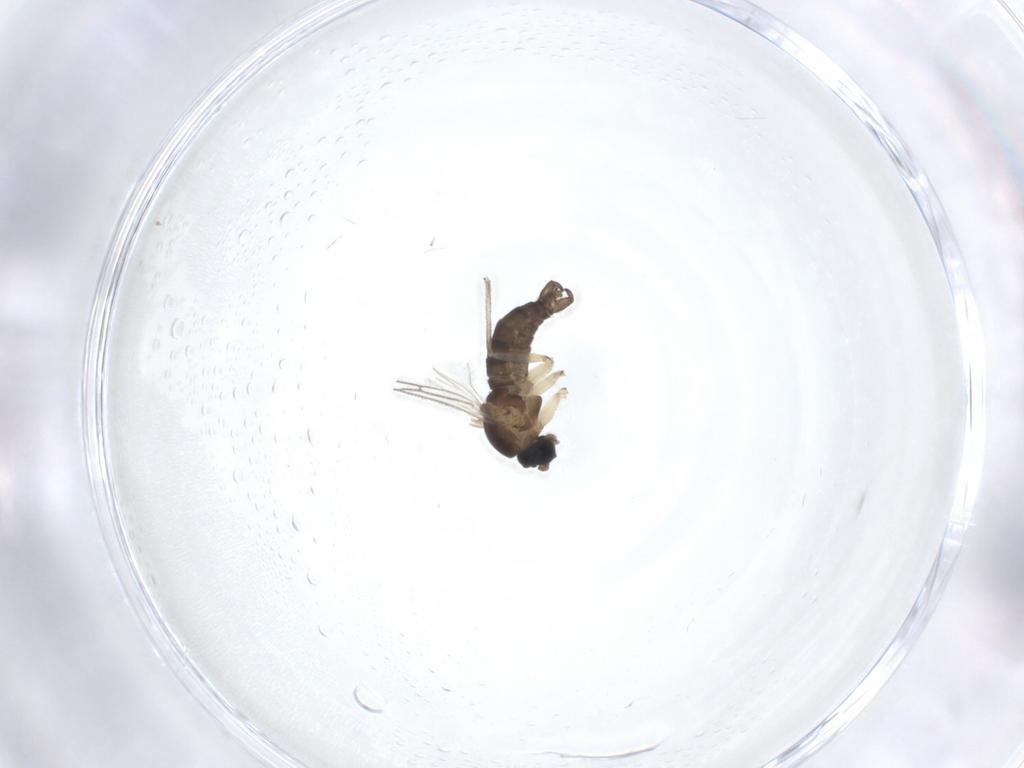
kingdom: Animalia
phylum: Arthropoda
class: Insecta
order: Diptera
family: Sciaridae
